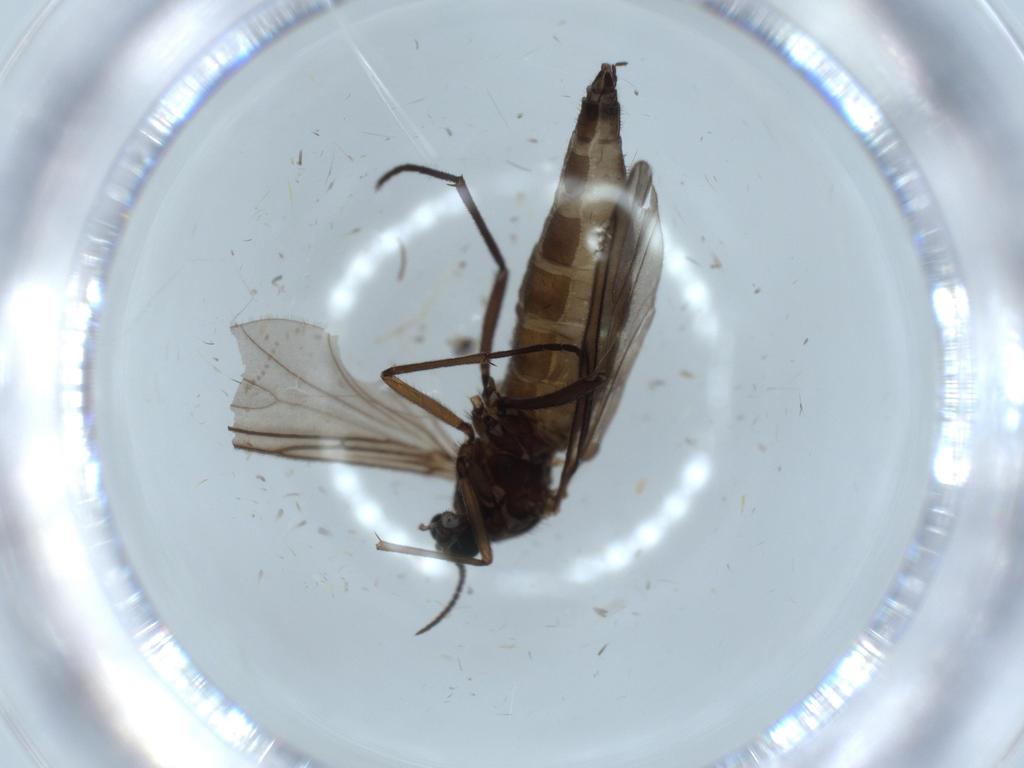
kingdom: Animalia
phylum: Arthropoda
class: Insecta
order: Diptera
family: Sciaridae
